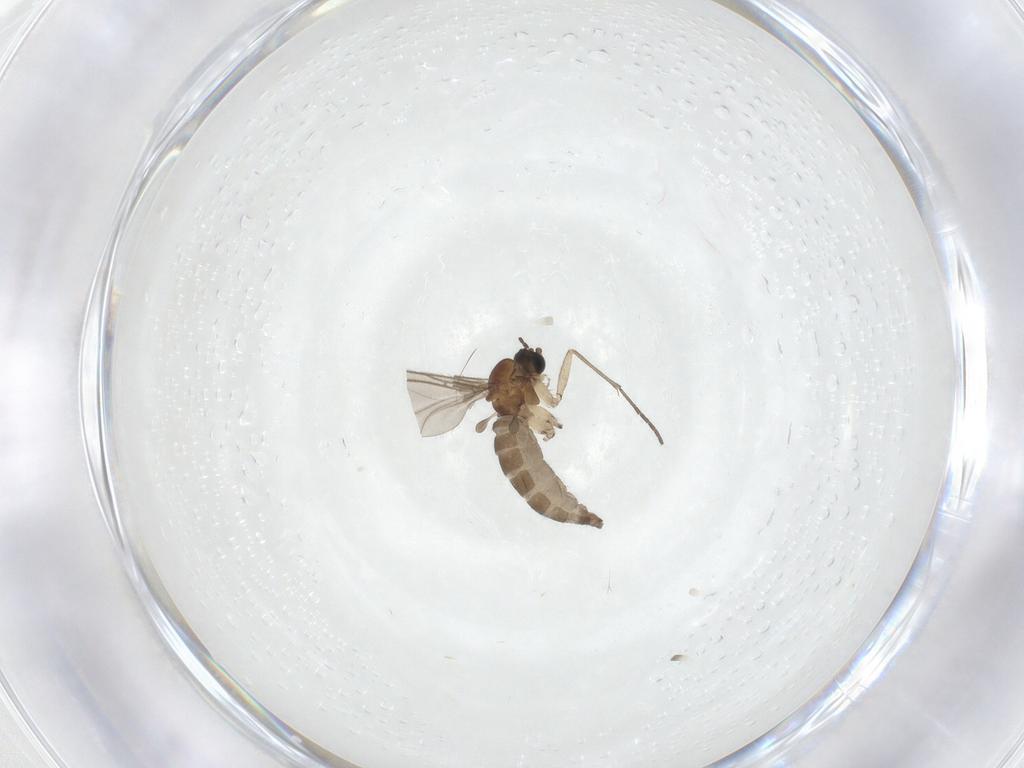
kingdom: Animalia
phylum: Arthropoda
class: Insecta
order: Diptera
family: Sciaridae
